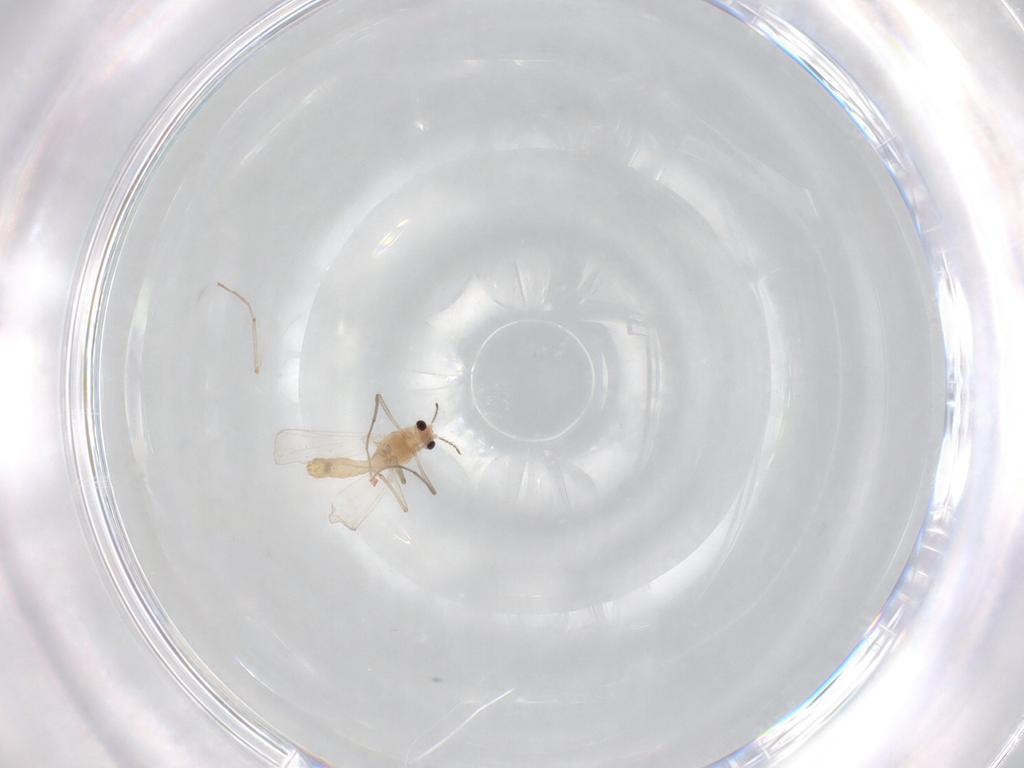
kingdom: Animalia
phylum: Arthropoda
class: Insecta
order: Diptera
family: Chironomidae
